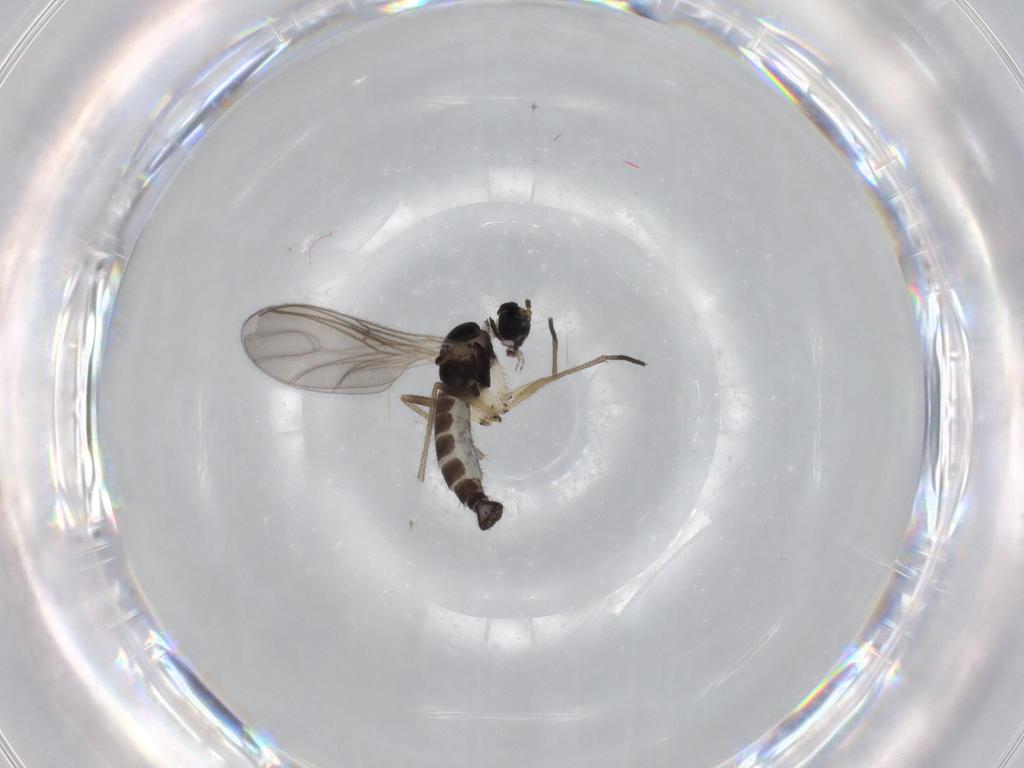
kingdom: Animalia
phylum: Arthropoda
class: Insecta
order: Diptera
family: Sciaridae
